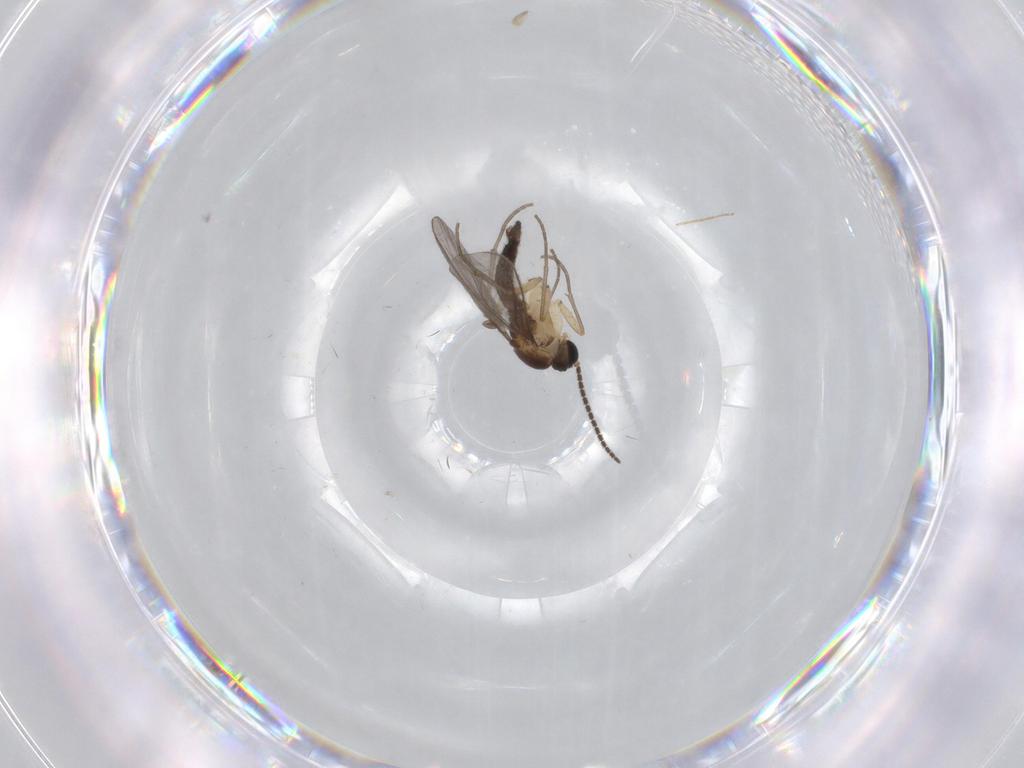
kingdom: Animalia
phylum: Arthropoda
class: Insecta
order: Diptera
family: Sciaridae
